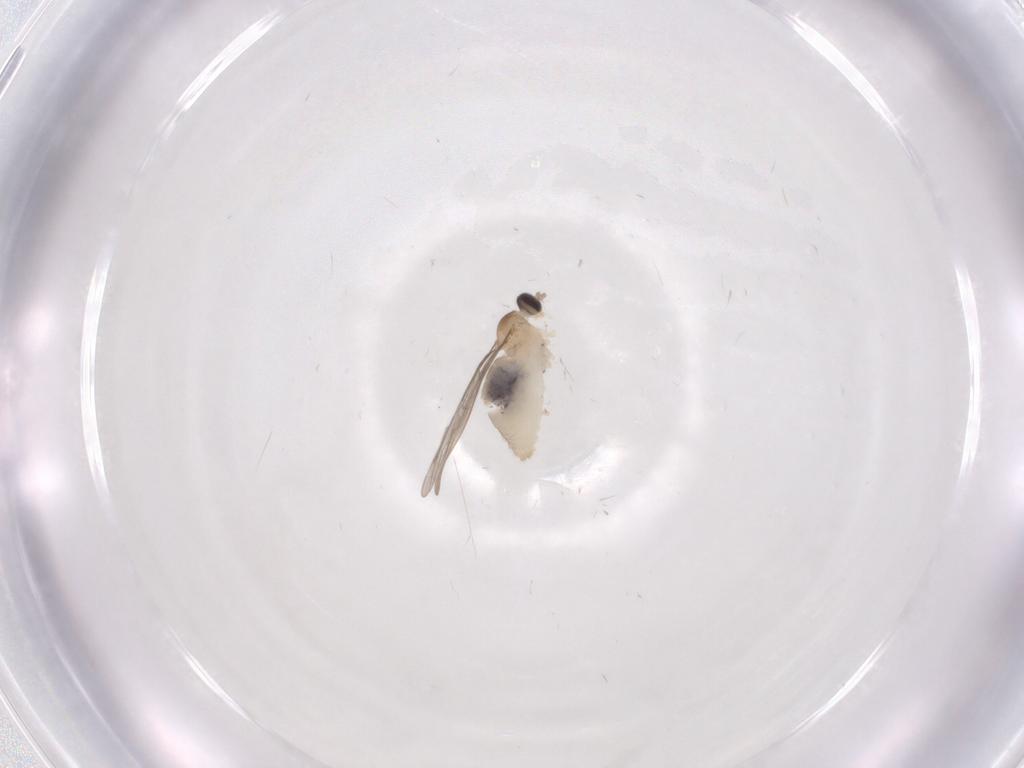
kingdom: Animalia
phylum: Arthropoda
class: Insecta
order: Diptera
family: Cecidomyiidae
